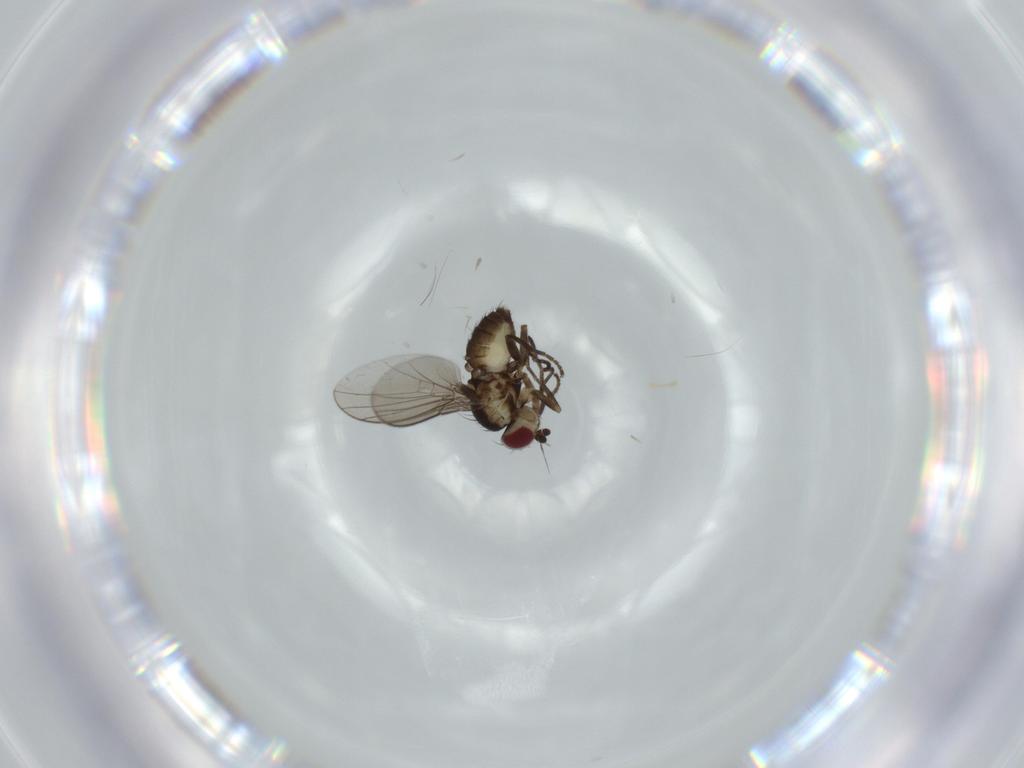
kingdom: Animalia
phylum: Arthropoda
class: Insecta
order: Diptera
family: Agromyzidae
